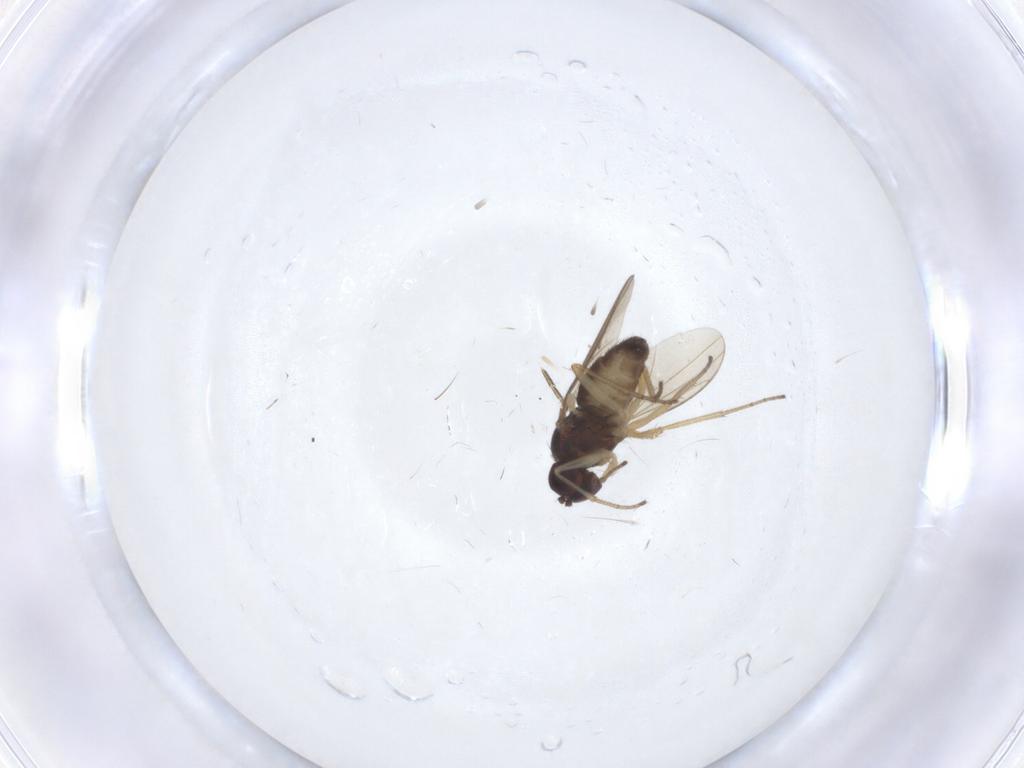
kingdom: Animalia
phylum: Arthropoda
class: Insecta
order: Diptera
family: Dolichopodidae
